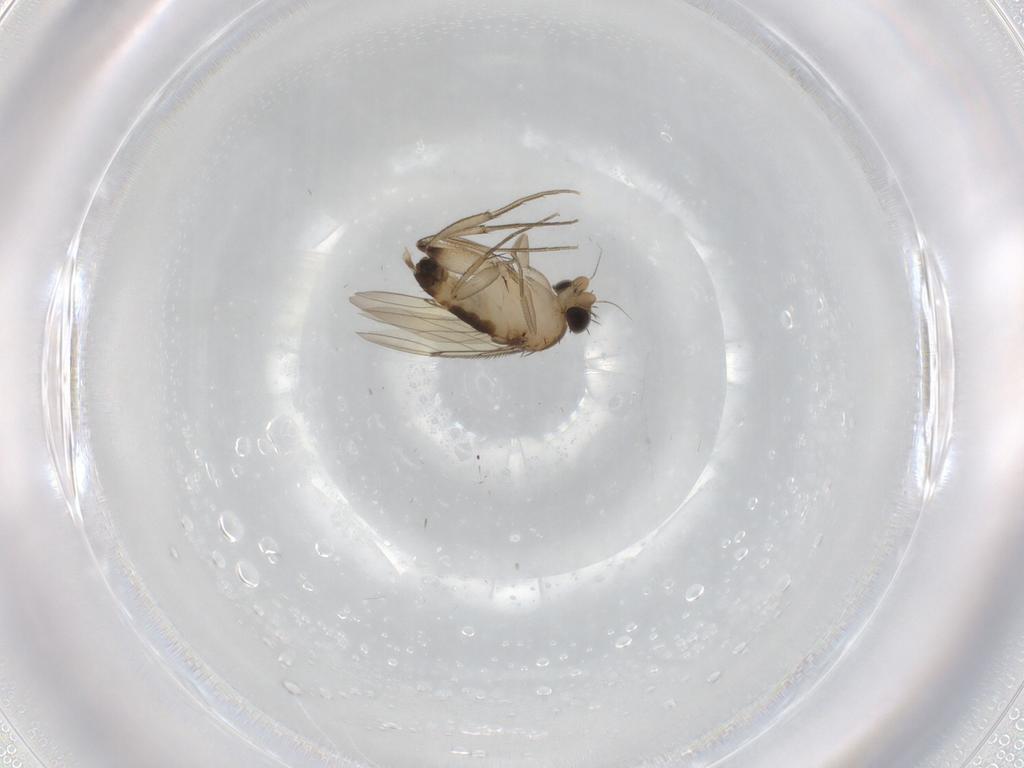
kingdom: Animalia
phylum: Arthropoda
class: Insecta
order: Diptera
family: Phoridae
